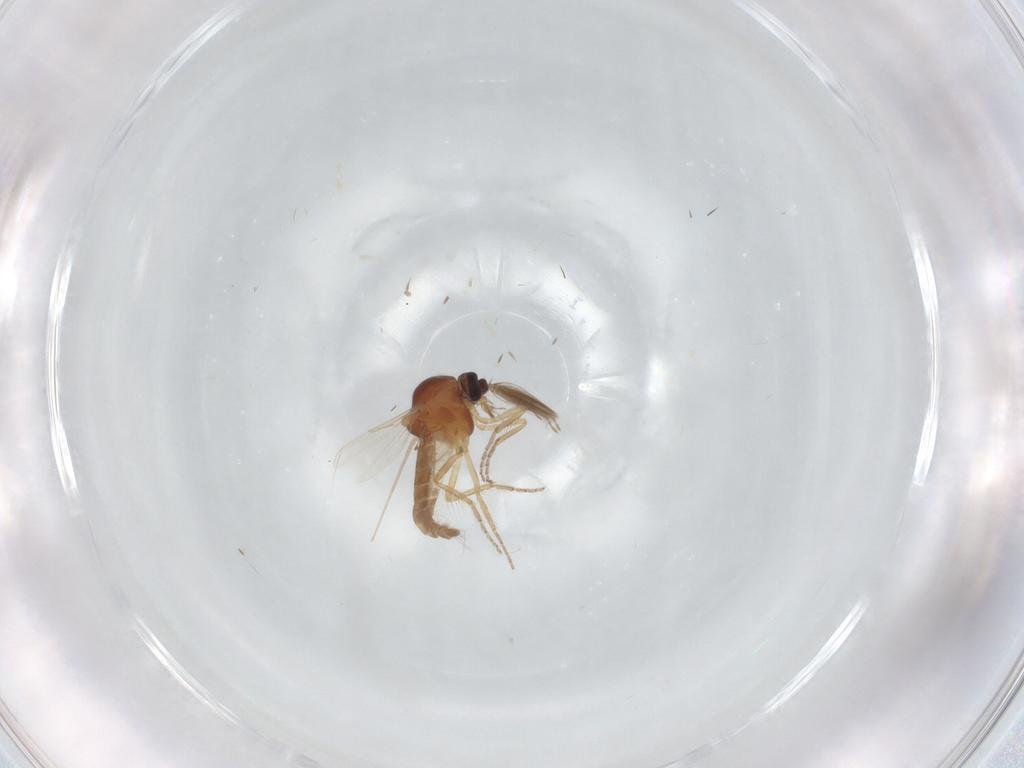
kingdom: Animalia
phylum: Arthropoda
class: Insecta
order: Diptera
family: Ceratopogonidae
